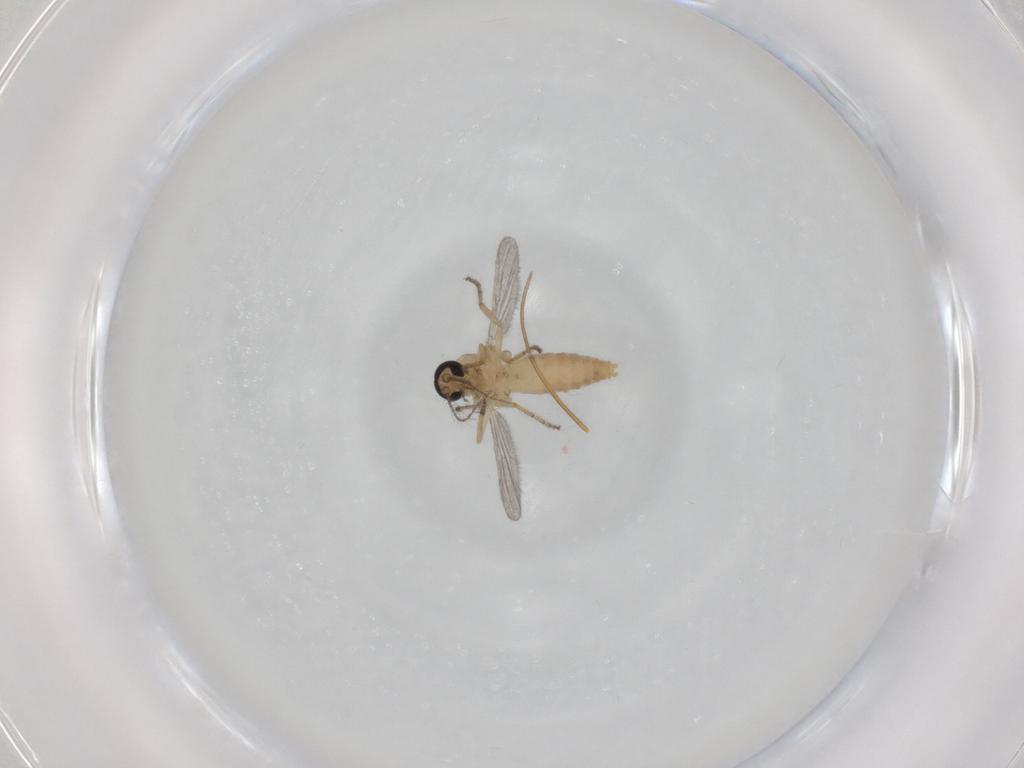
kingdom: Animalia
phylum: Arthropoda
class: Insecta
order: Diptera
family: Ceratopogonidae
